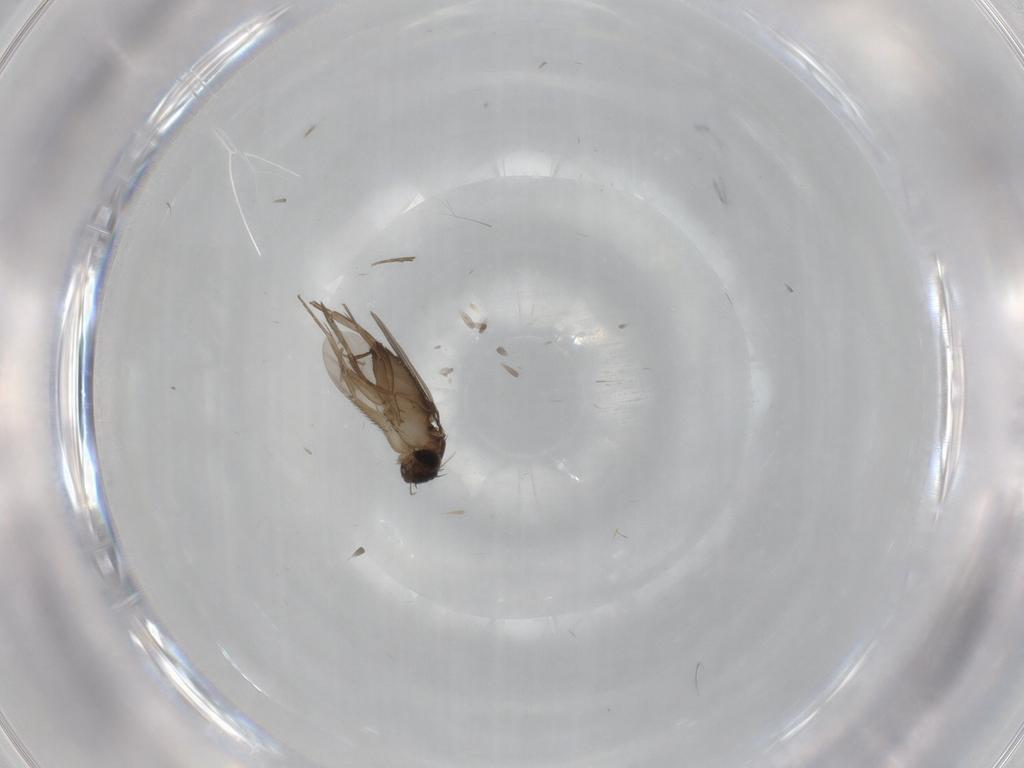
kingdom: Animalia
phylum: Arthropoda
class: Insecta
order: Diptera
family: Phoridae
